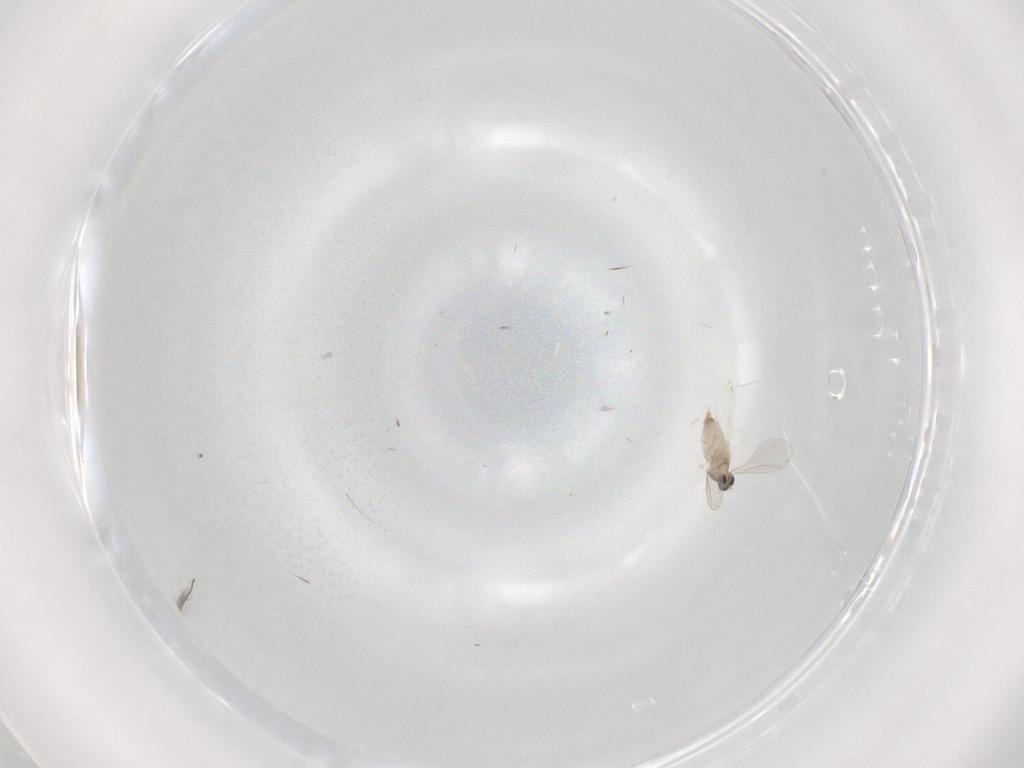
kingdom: Animalia
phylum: Arthropoda
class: Insecta
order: Diptera
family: Cecidomyiidae
